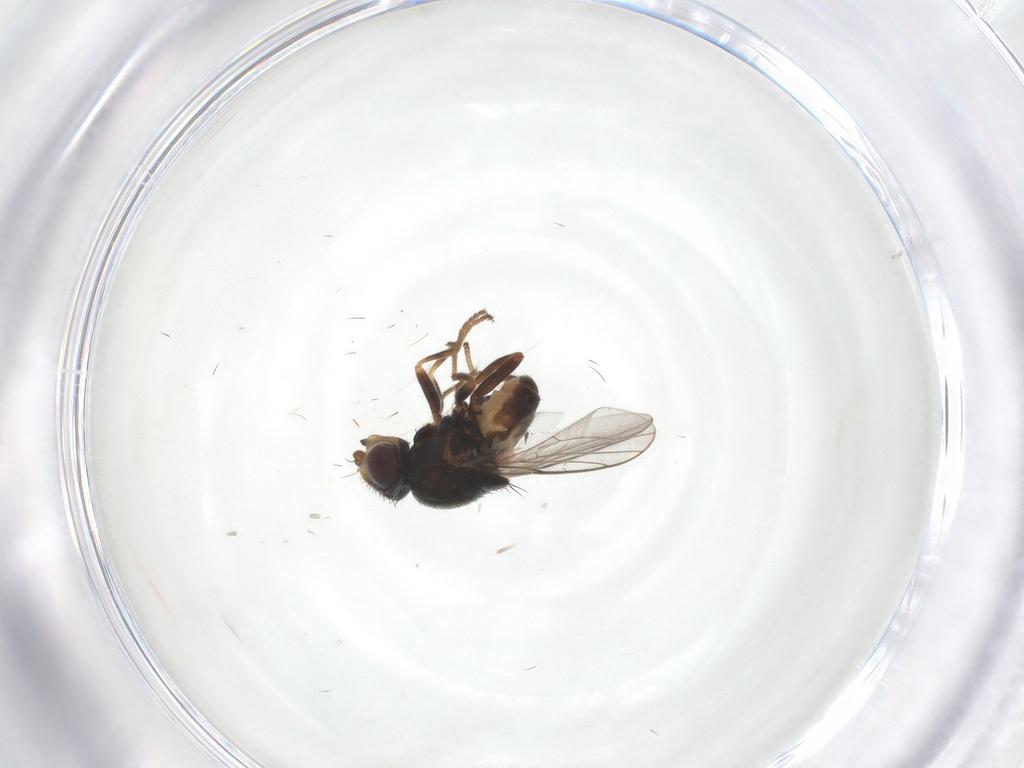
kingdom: Animalia
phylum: Arthropoda
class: Insecta
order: Diptera
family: Chloropidae
